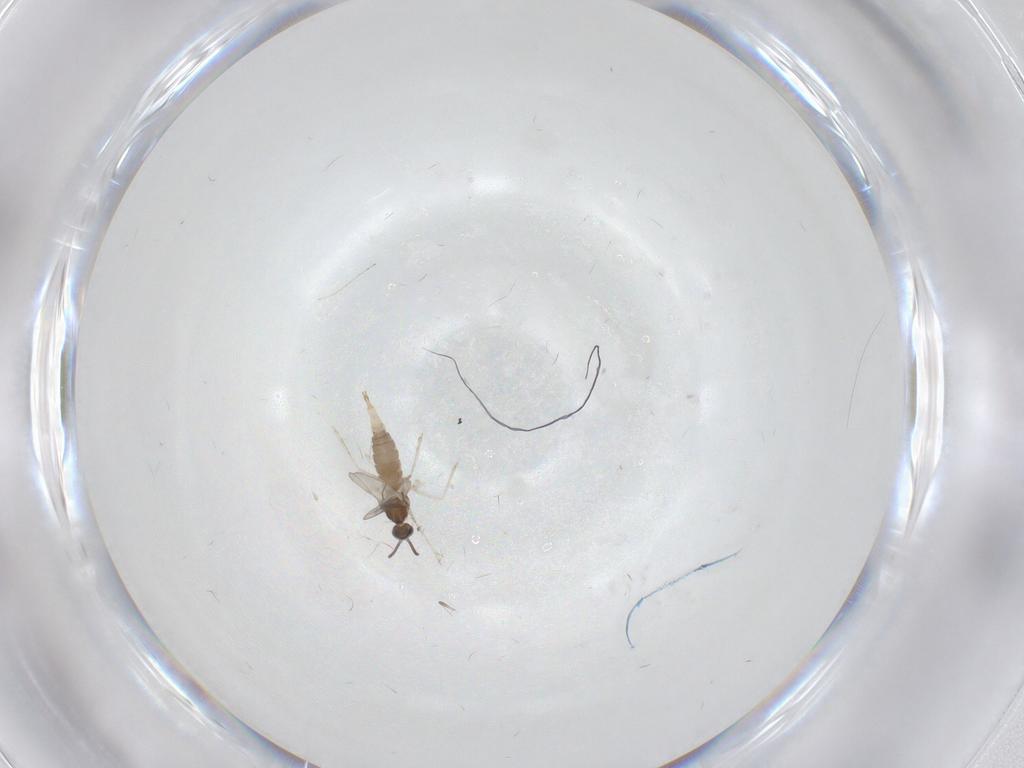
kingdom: Animalia
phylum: Arthropoda
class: Insecta
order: Diptera
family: Cecidomyiidae
